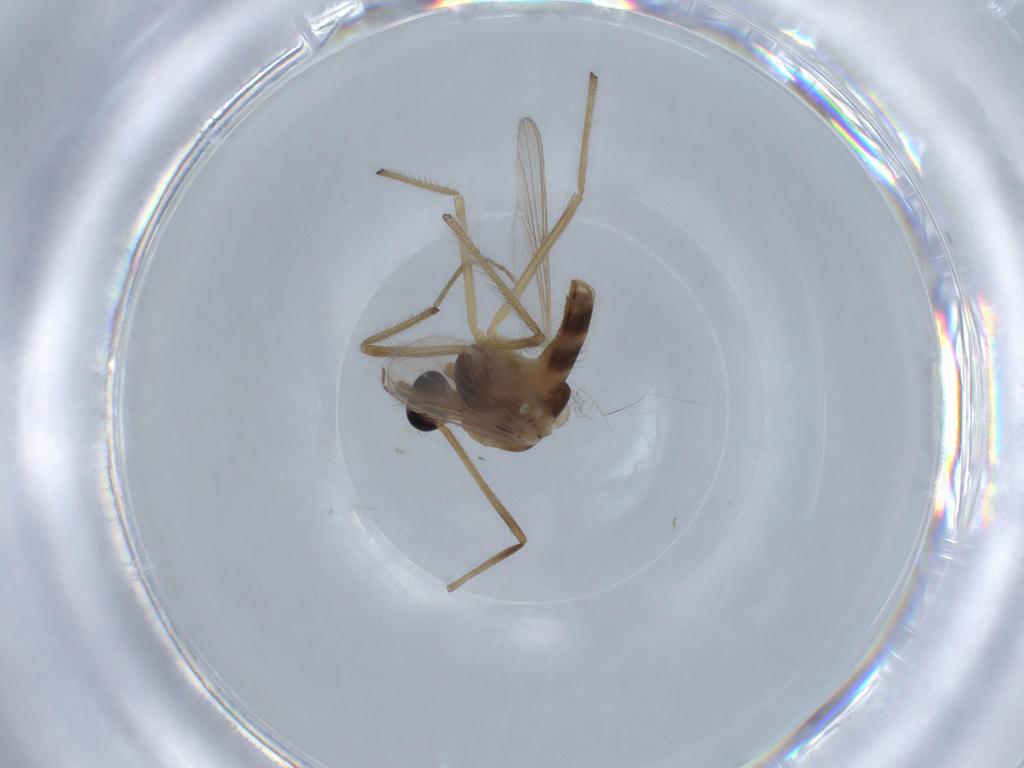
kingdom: Animalia
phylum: Arthropoda
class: Insecta
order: Diptera
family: Chironomidae
